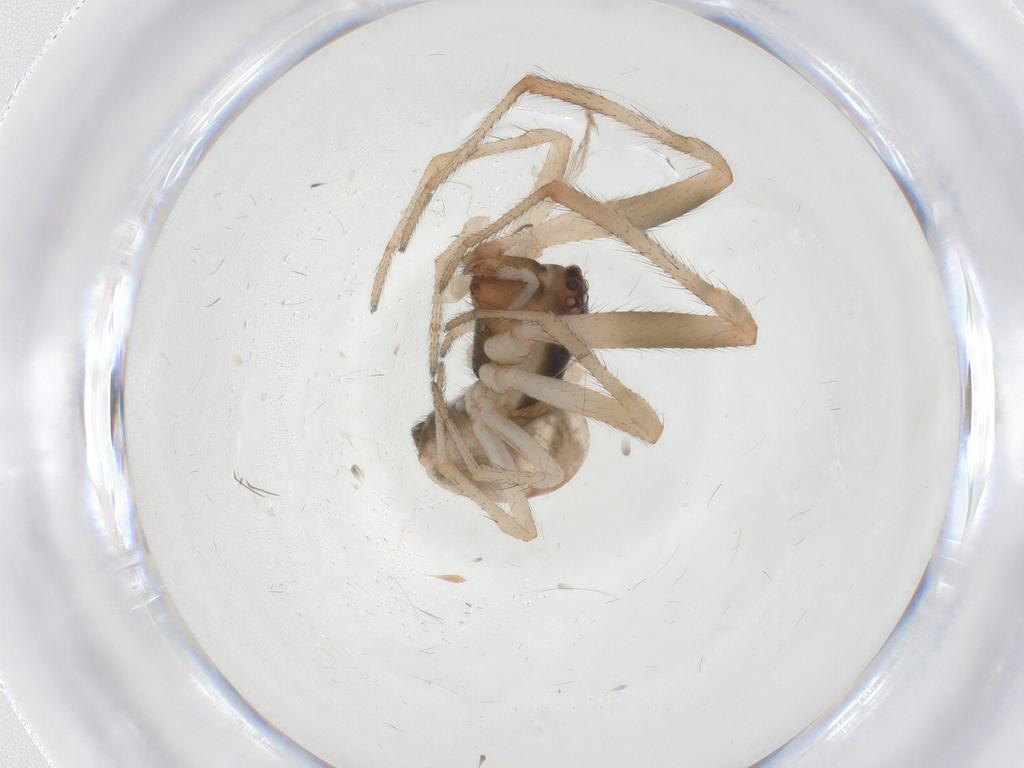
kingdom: Animalia
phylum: Arthropoda
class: Arachnida
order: Araneae
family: Theridiidae
